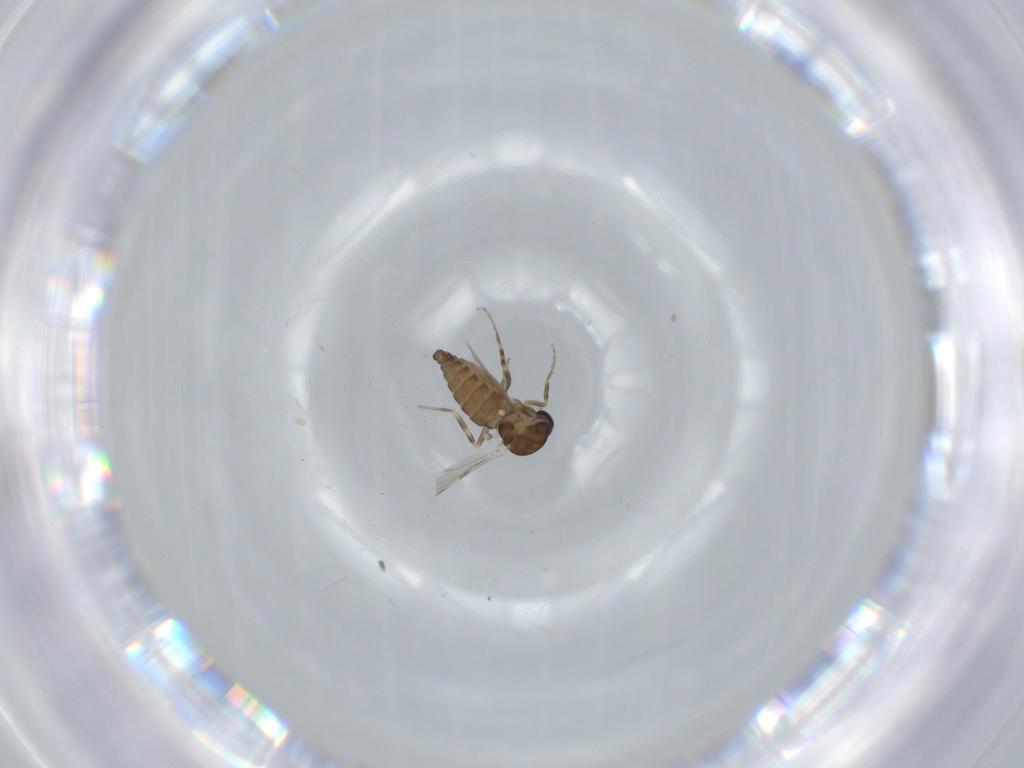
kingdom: Animalia
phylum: Arthropoda
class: Insecta
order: Diptera
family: Ceratopogonidae
